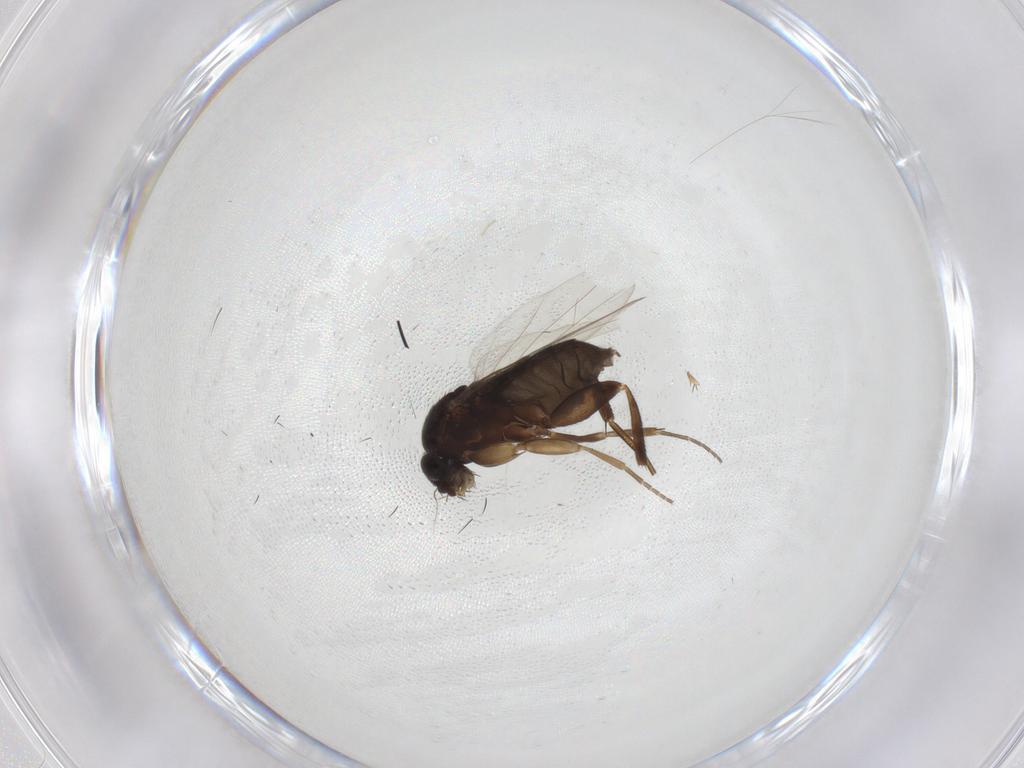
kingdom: Animalia
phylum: Arthropoda
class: Insecta
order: Diptera
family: Phoridae
